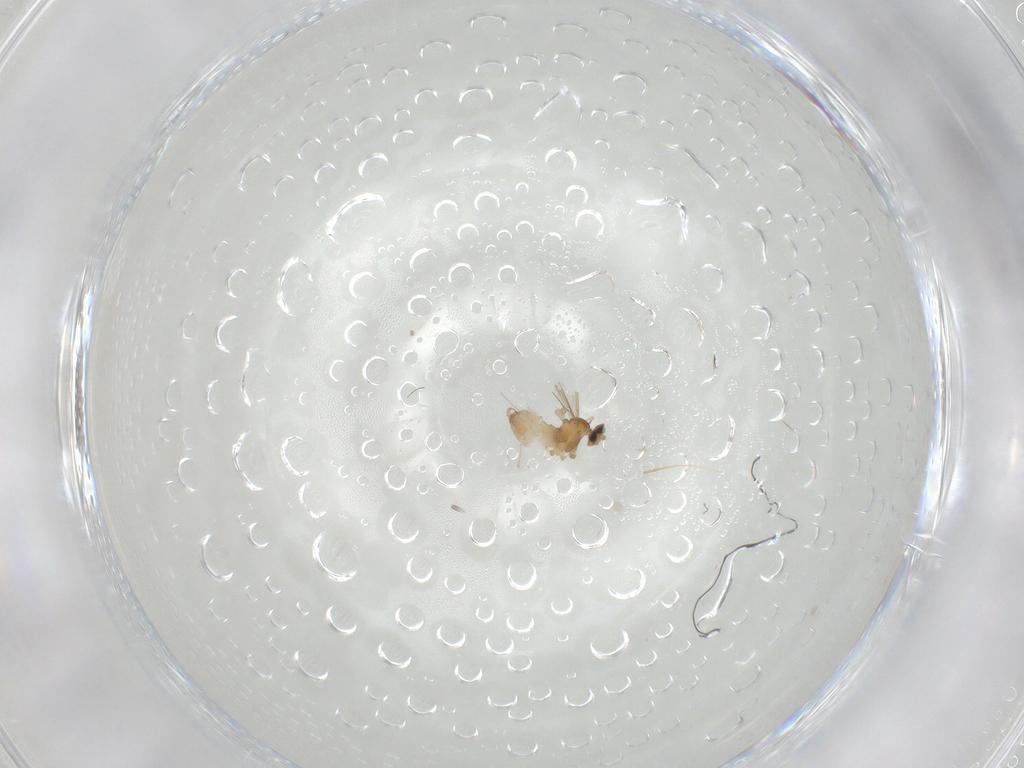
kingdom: Animalia
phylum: Arthropoda
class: Insecta
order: Diptera
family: Cecidomyiidae
